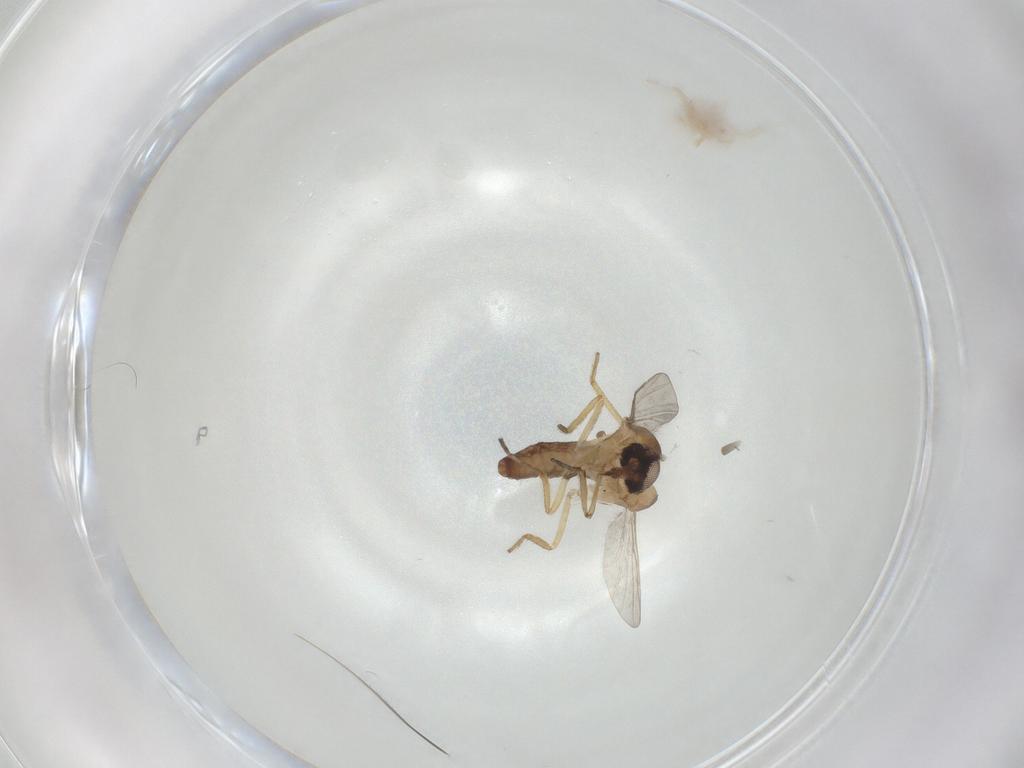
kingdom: Animalia
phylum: Arthropoda
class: Insecta
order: Diptera
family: Ceratopogonidae
